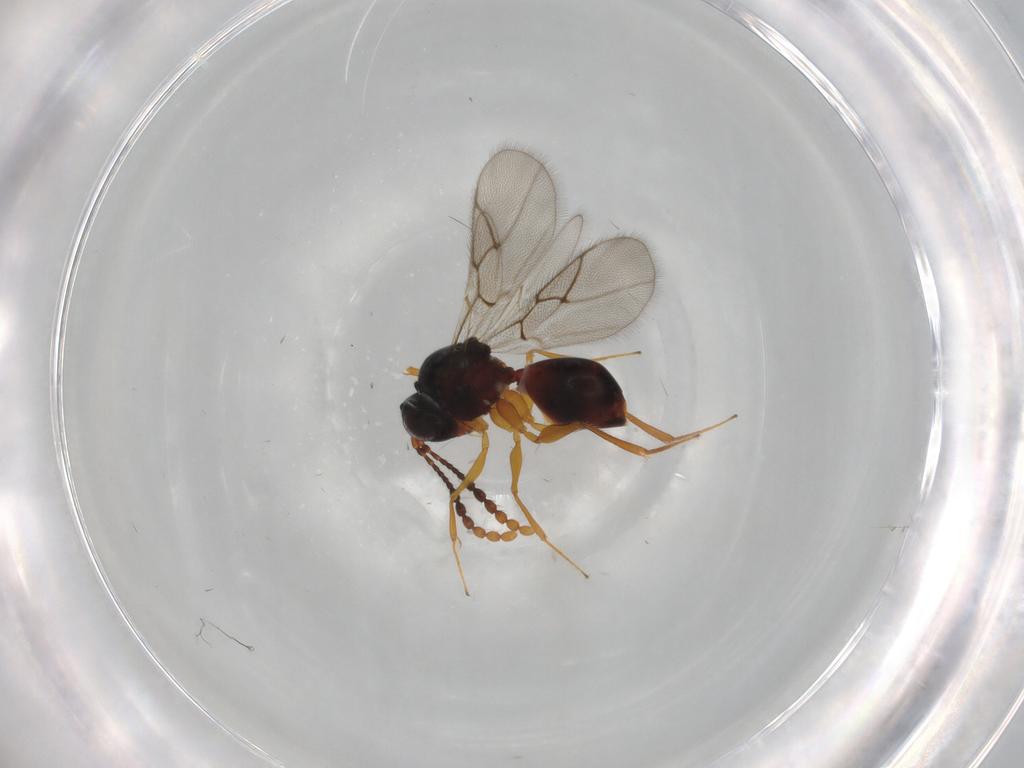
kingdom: Animalia
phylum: Arthropoda
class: Insecta
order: Hymenoptera
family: Figitidae
